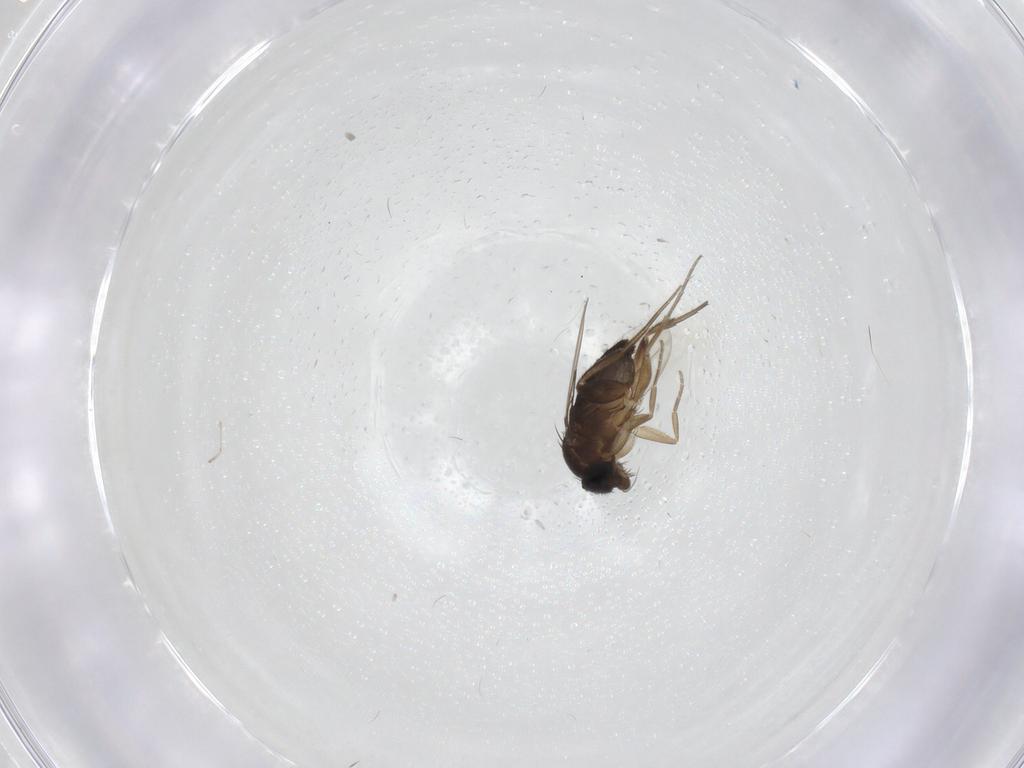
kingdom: Animalia
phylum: Arthropoda
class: Insecta
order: Diptera
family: Phoridae
